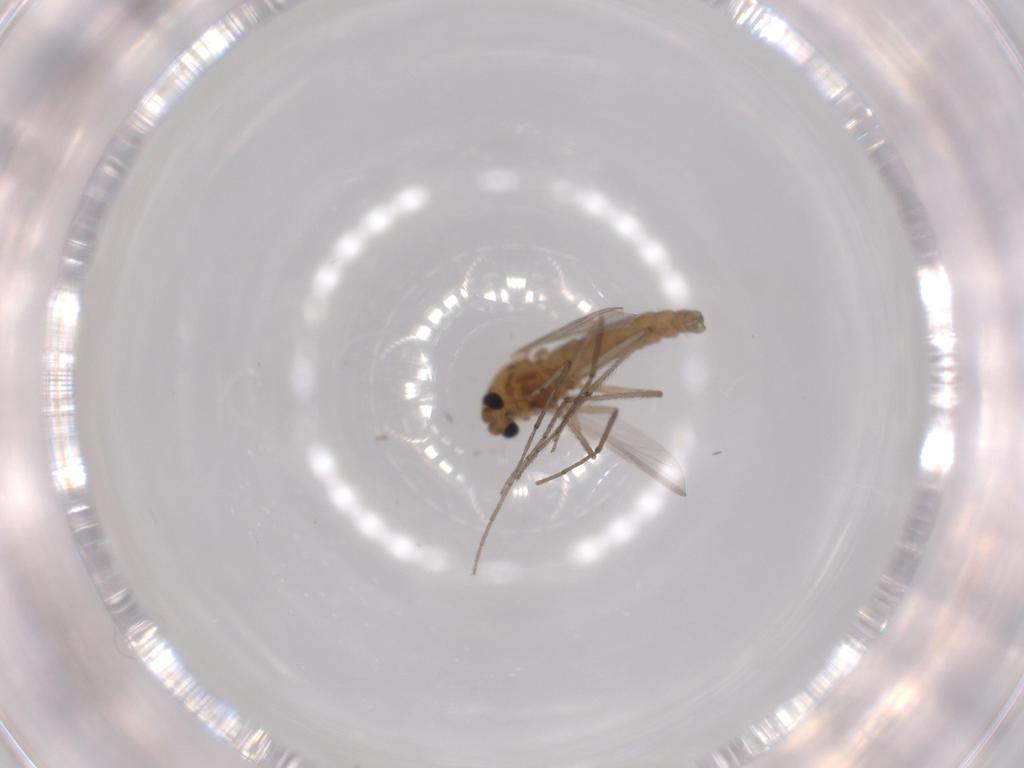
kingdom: Animalia
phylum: Arthropoda
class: Insecta
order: Diptera
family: Chironomidae
